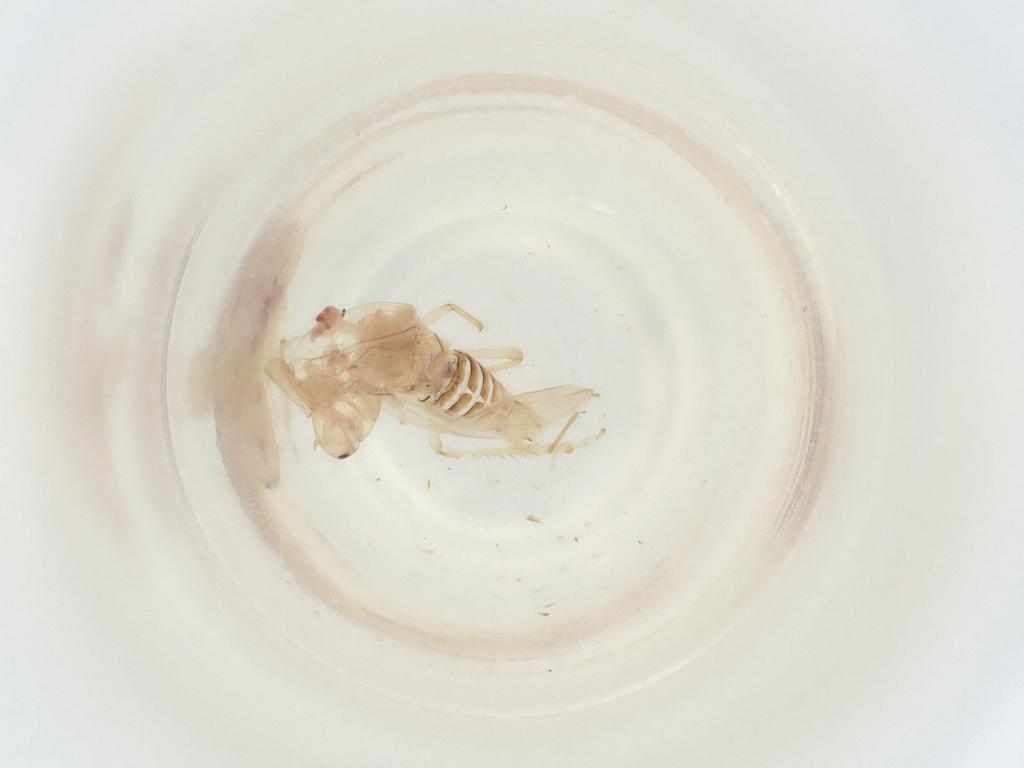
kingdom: Animalia
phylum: Arthropoda
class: Insecta
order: Hemiptera
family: Cicadellidae
